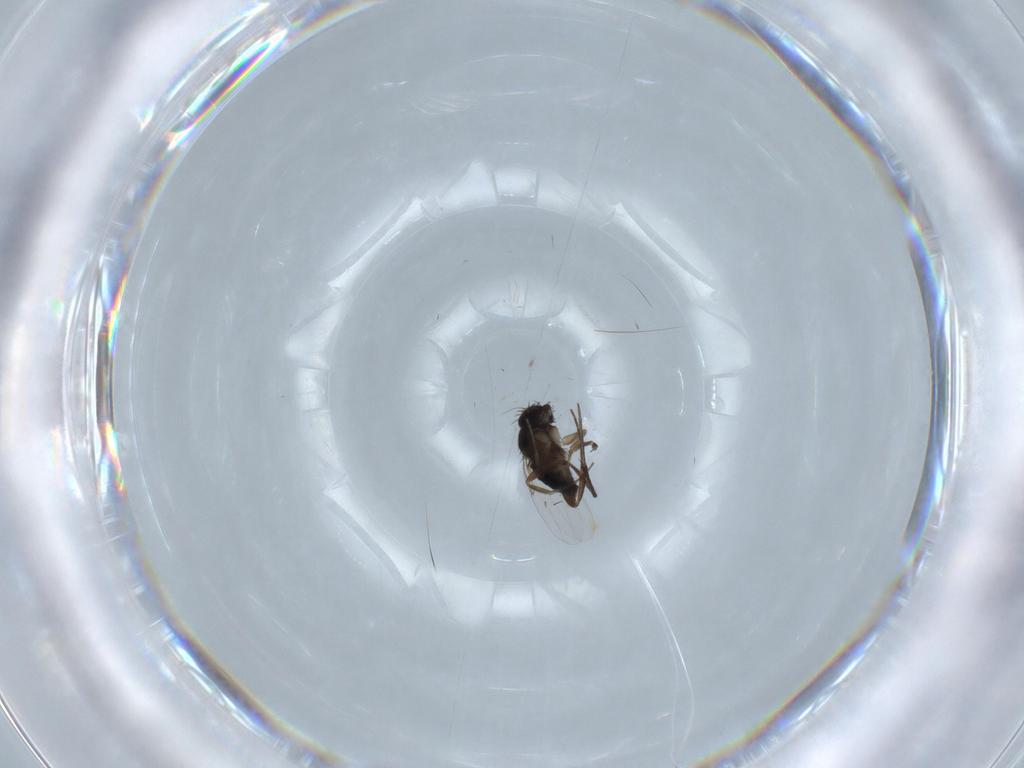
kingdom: Animalia
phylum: Arthropoda
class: Insecta
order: Diptera
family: Phoridae
